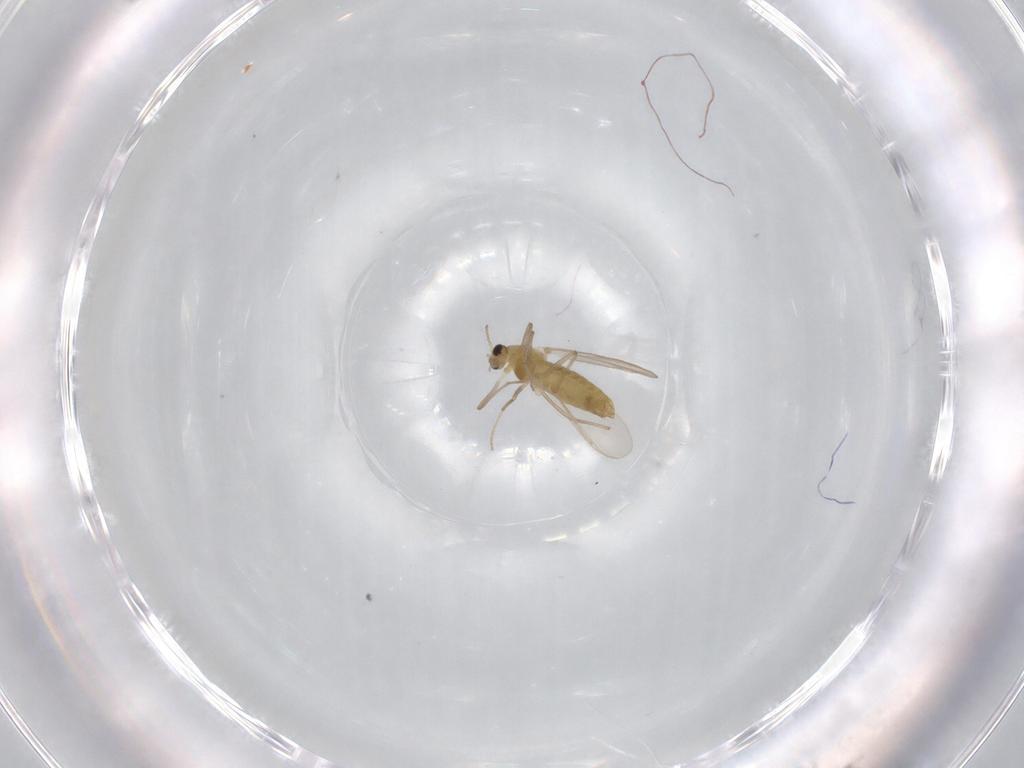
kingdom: Animalia
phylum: Arthropoda
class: Insecta
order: Diptera
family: Chironomidae
